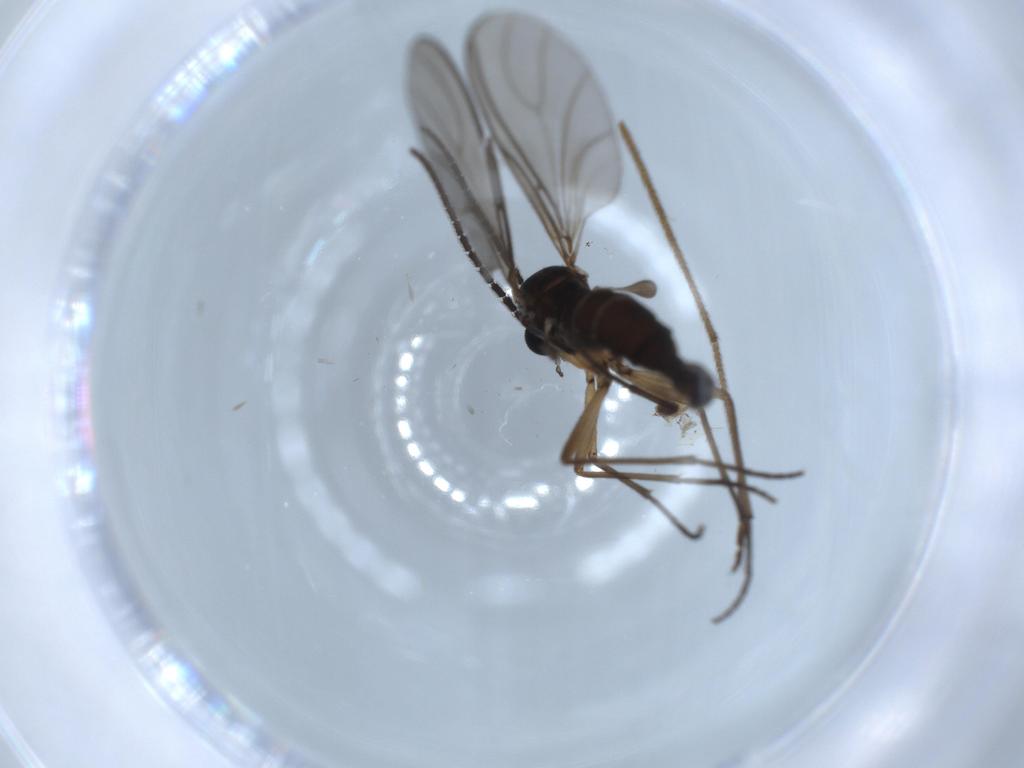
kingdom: Animalia
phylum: Arthropoda
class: Insecta
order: Diptera
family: Sciaridae
